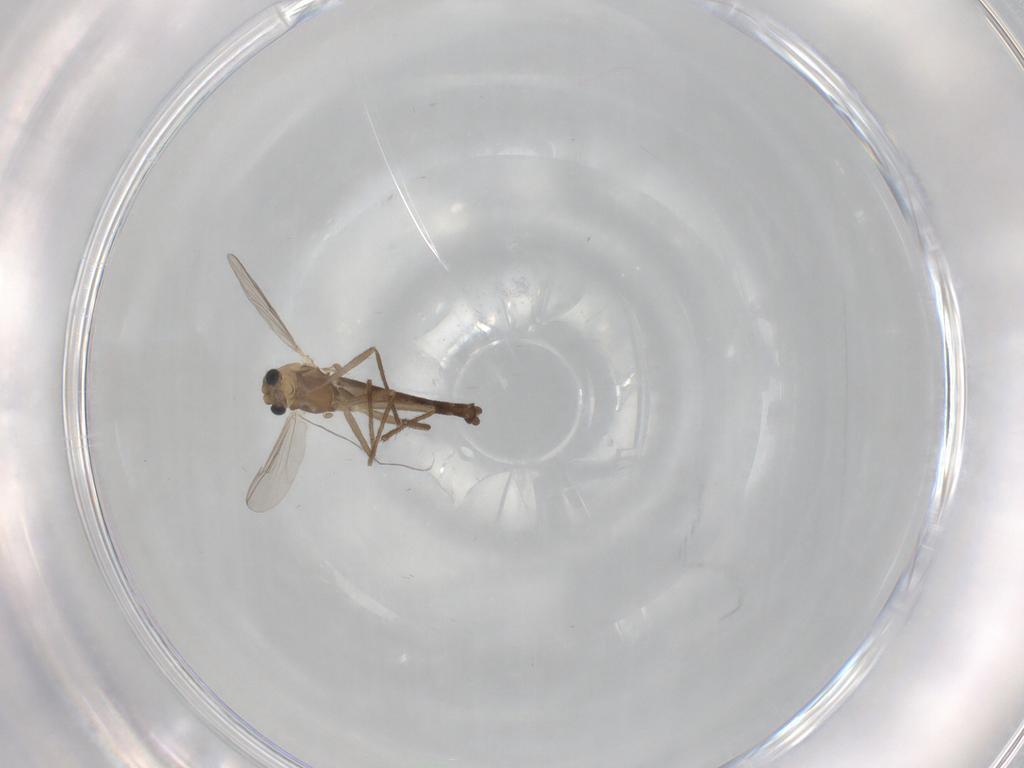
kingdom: Animalia
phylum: Arthropoda
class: Insecta
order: Diptera
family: Chironomidae
